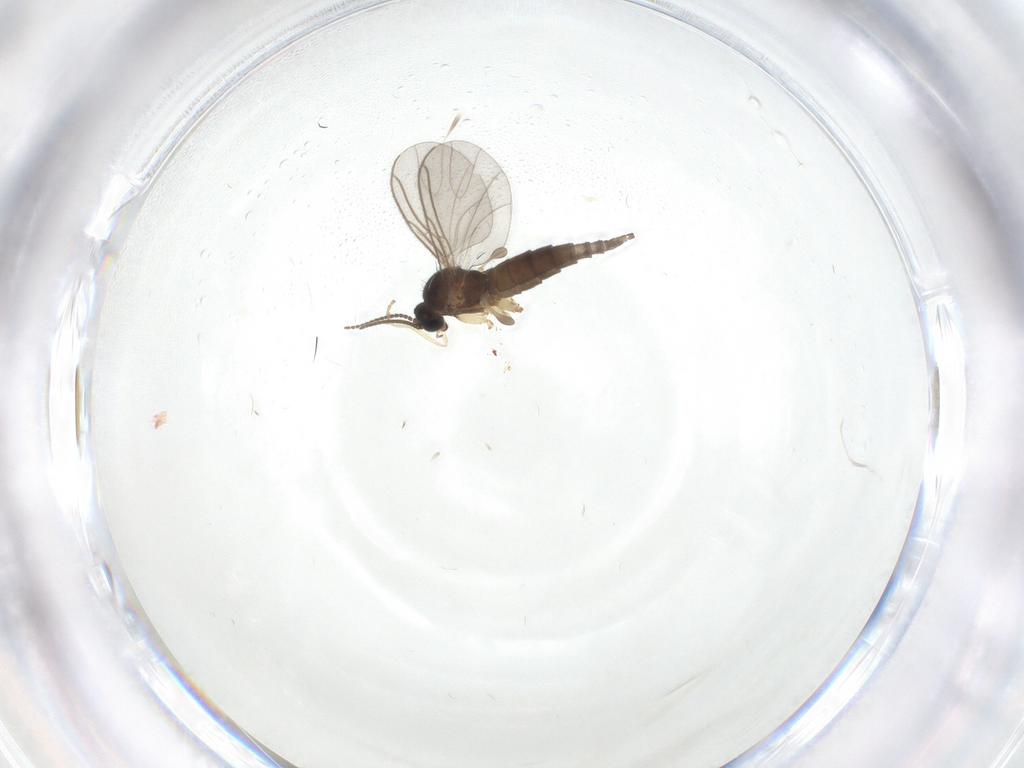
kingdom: Animalia
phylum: Arthropoda
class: Insecta
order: Diptera
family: Cecidomyiidae
